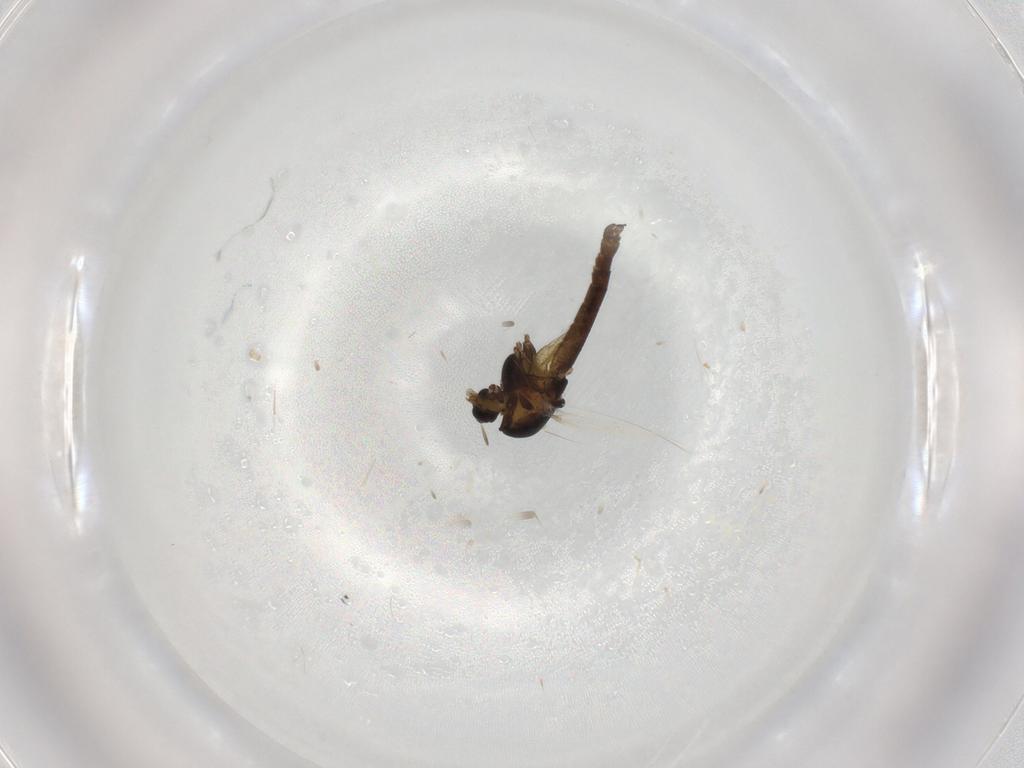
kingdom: Animalia
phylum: Arthropoda
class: Insecta
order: Diptera
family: Chironomidae
